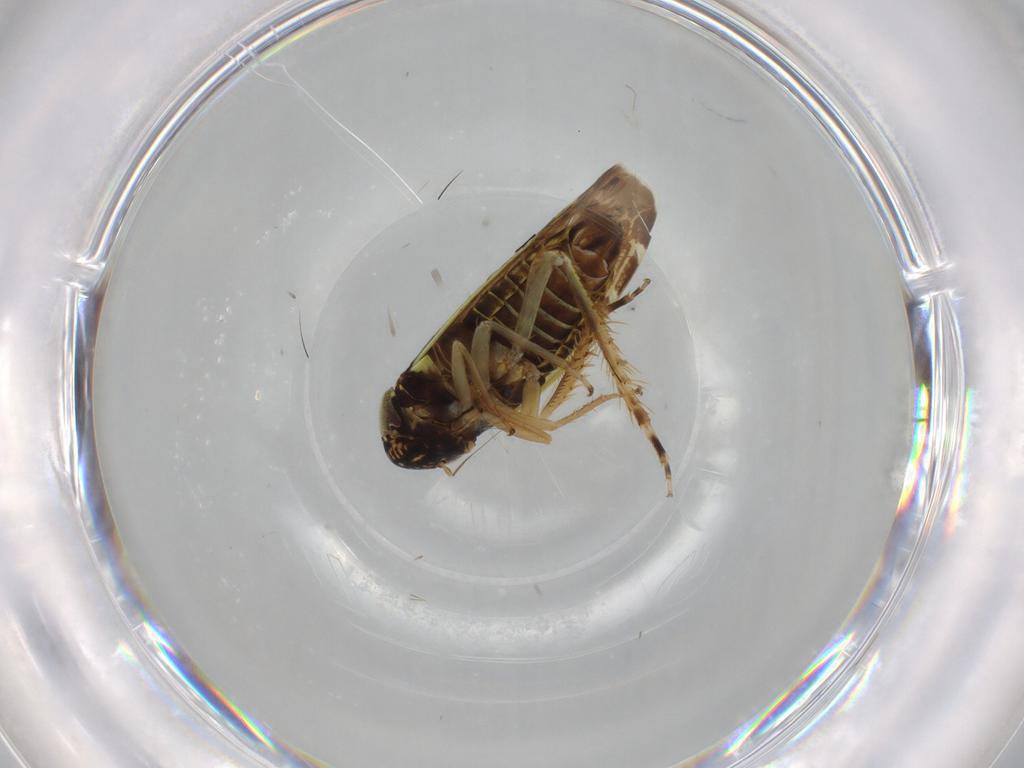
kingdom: Animalia
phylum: Arthropoda
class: Insecta
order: Hemiptera
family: Cicadellidae
